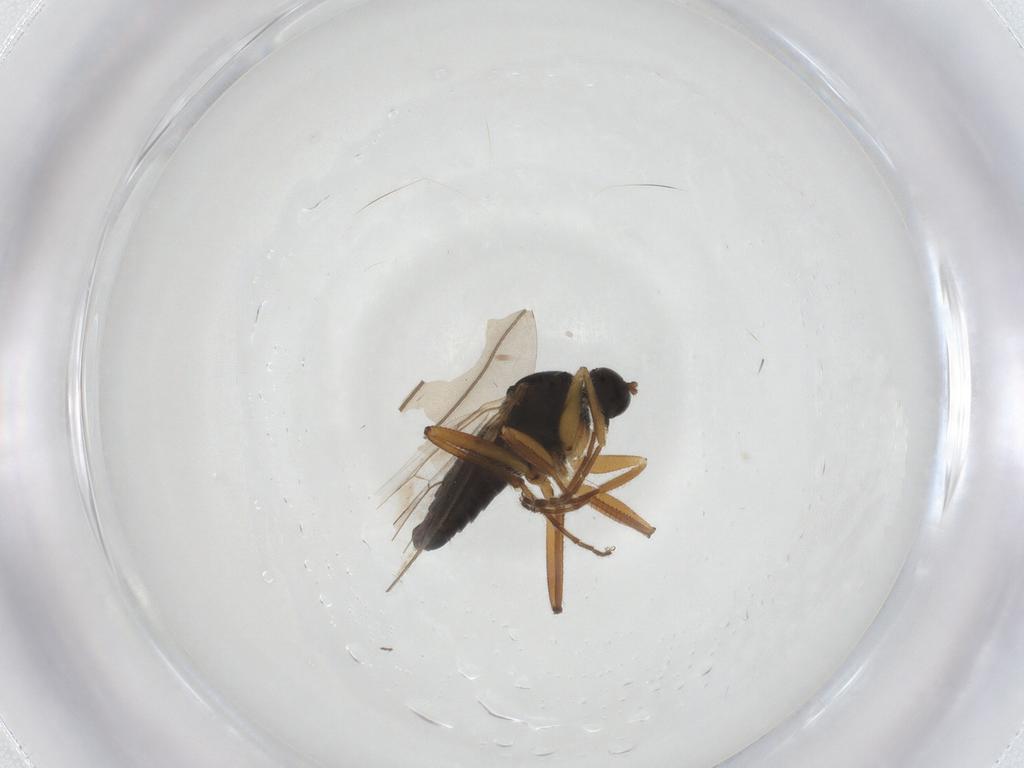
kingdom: Animalia
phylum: Arthropoda
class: Insecta
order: Diptera
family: Hybotidae
